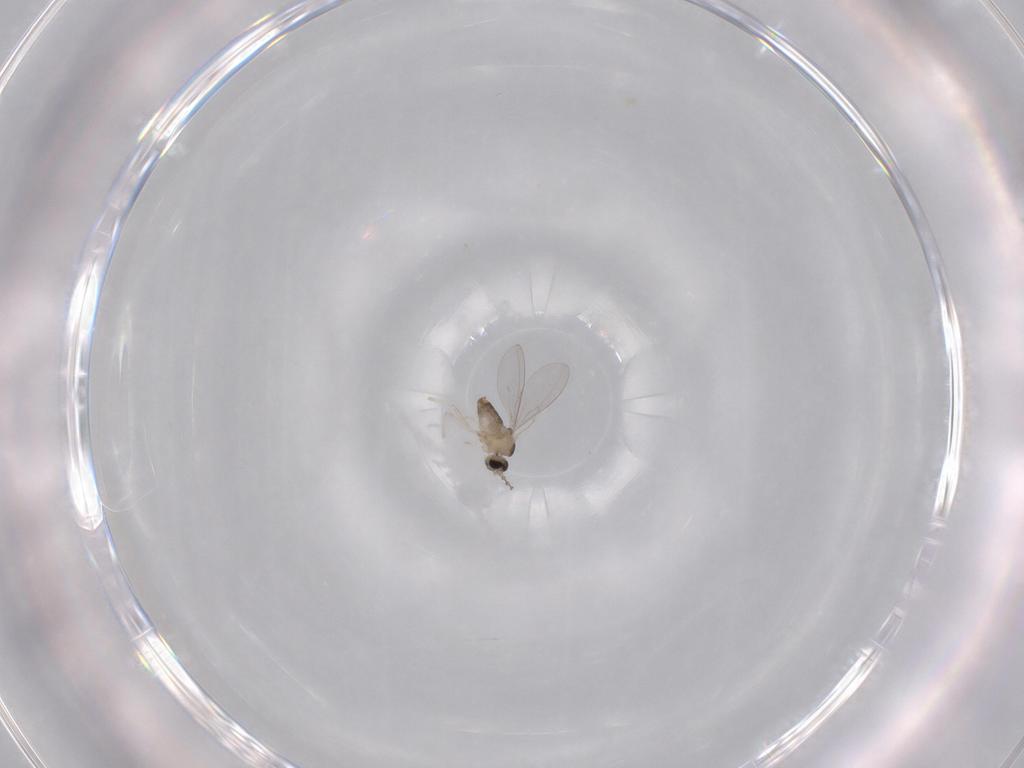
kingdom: Animalia
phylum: Arthropoda
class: Insecta
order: Diptera
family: Cecidomyiidae
